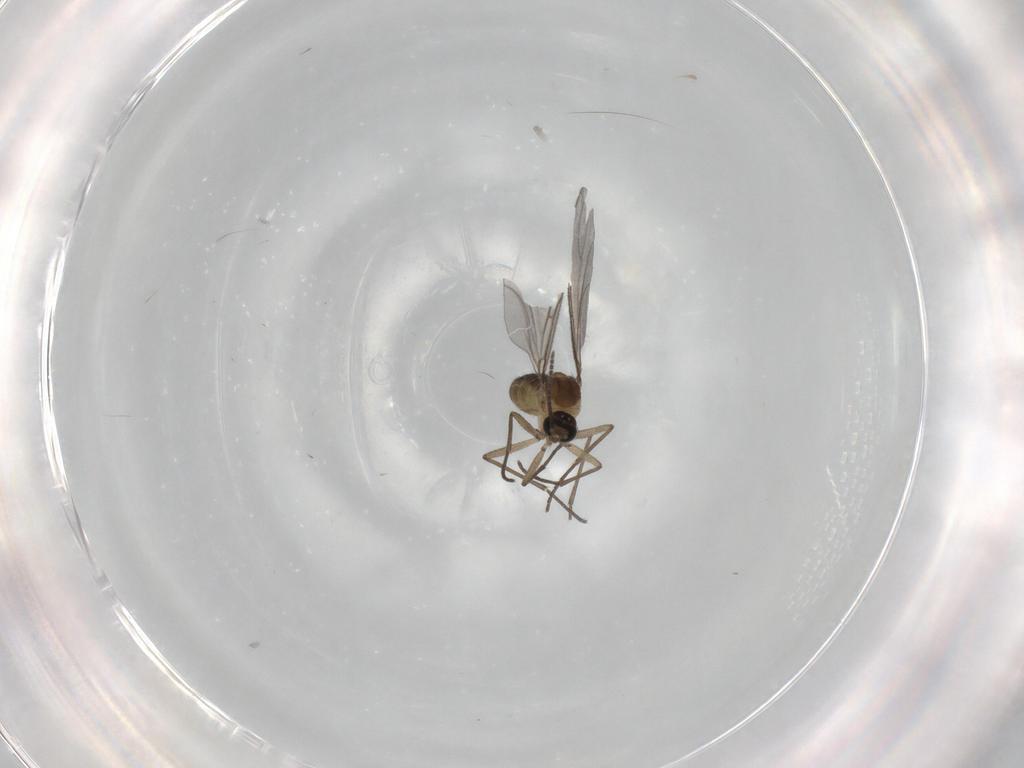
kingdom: Animalia
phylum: Arthropoda
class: Insecta
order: Diptera
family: Sciaridae
